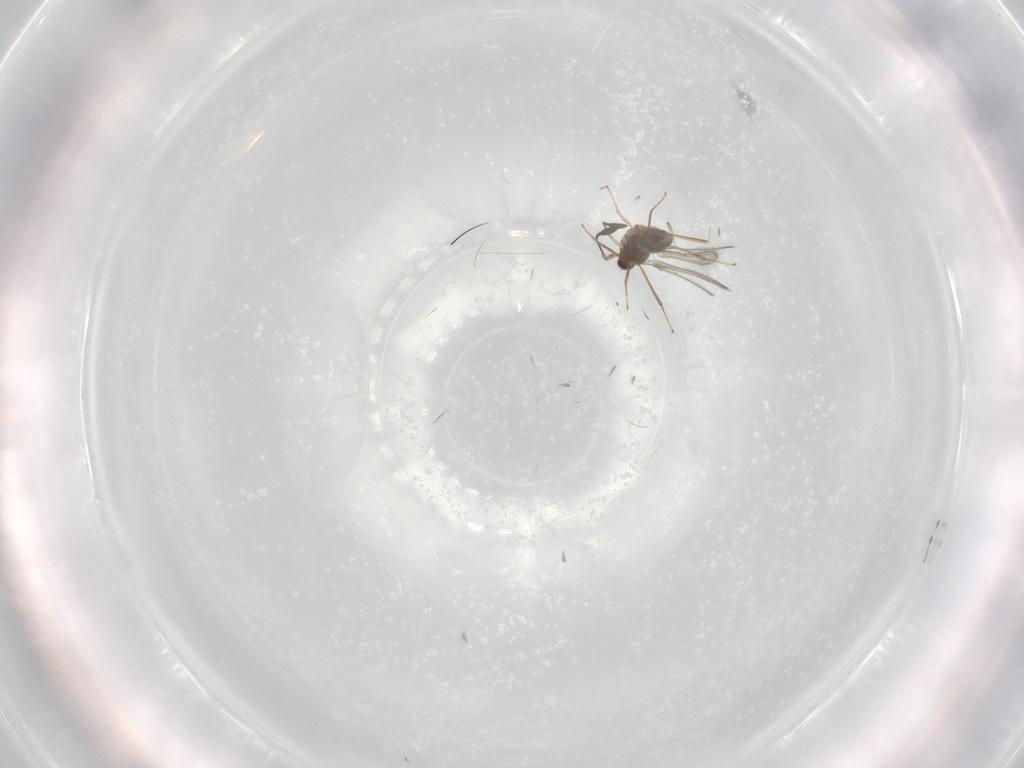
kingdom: Animalia
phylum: Arthropoda
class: Insecta
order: Hymenoptera
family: Mymaridae
